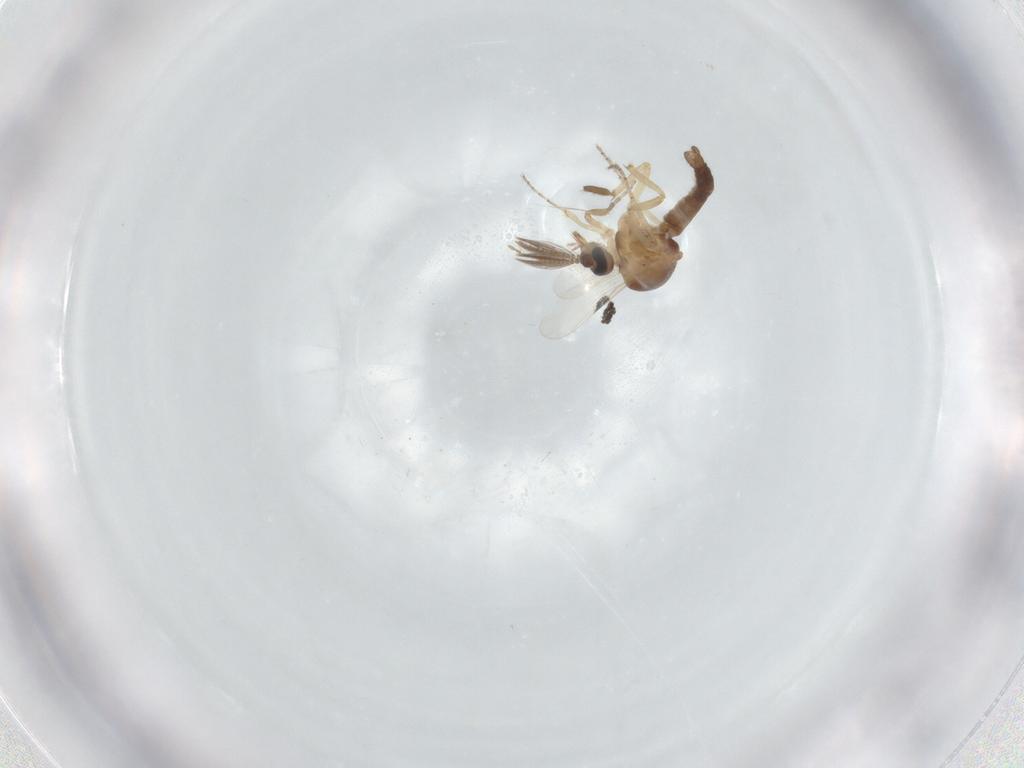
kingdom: Animalia
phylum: Arthropoda
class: Insecta
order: Diptera
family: Ceratopogonidae
